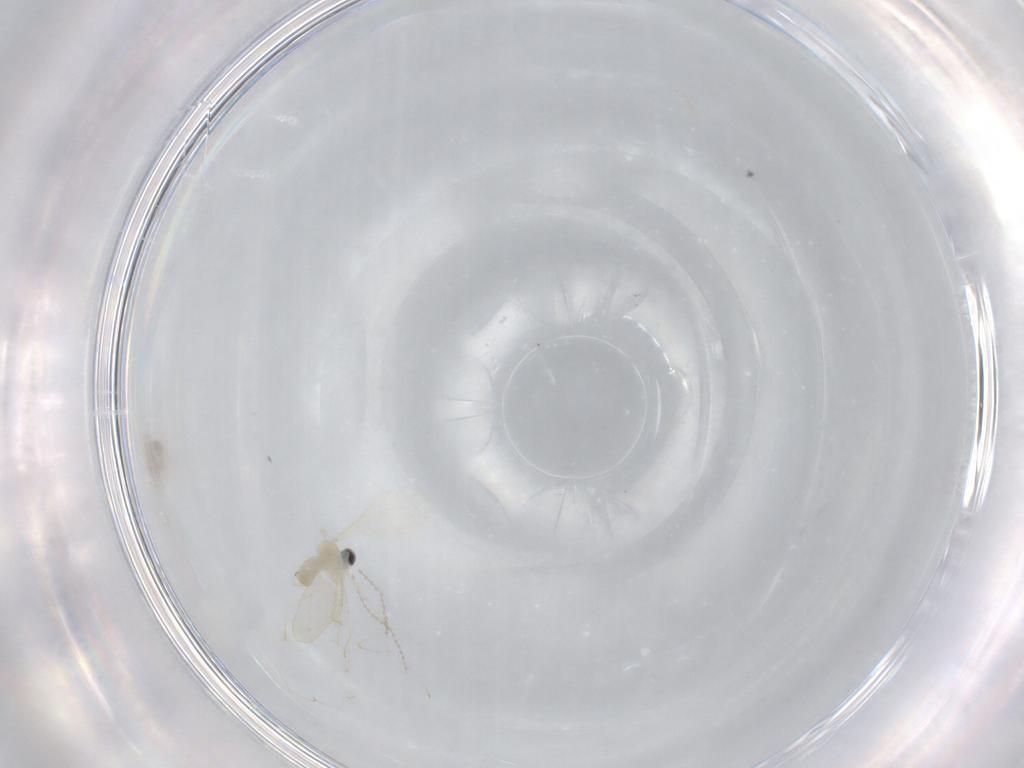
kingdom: Animalia
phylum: Arthropoda
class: Insecta
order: Diptera
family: Cecidomyiidae
